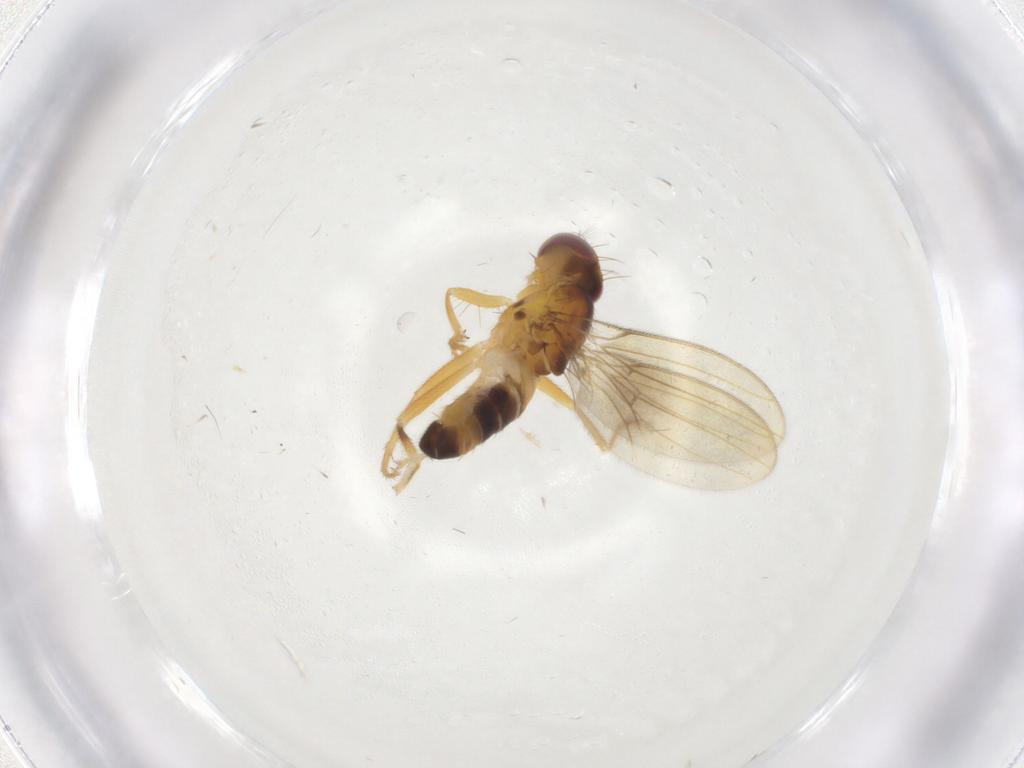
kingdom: Animalia
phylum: Arthropoda
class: Insecta
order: Diptera
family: Periscelididae
